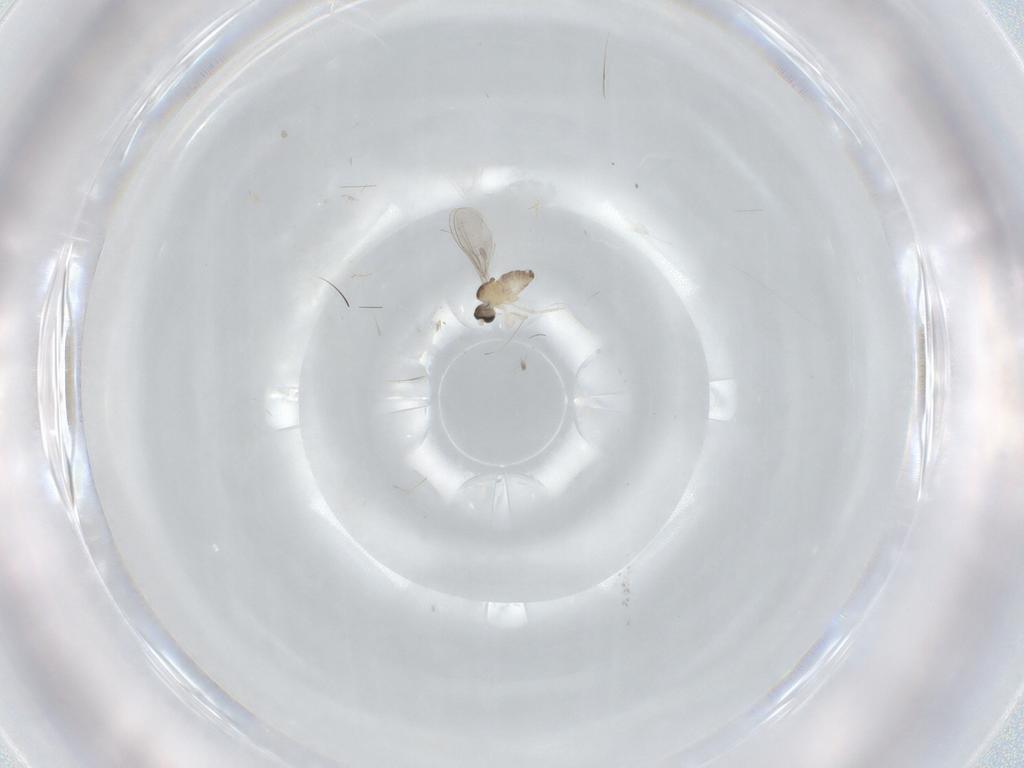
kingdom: Animalia
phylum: Arthropoda
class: Insecta
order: Diptera
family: Cecidomyiidae
